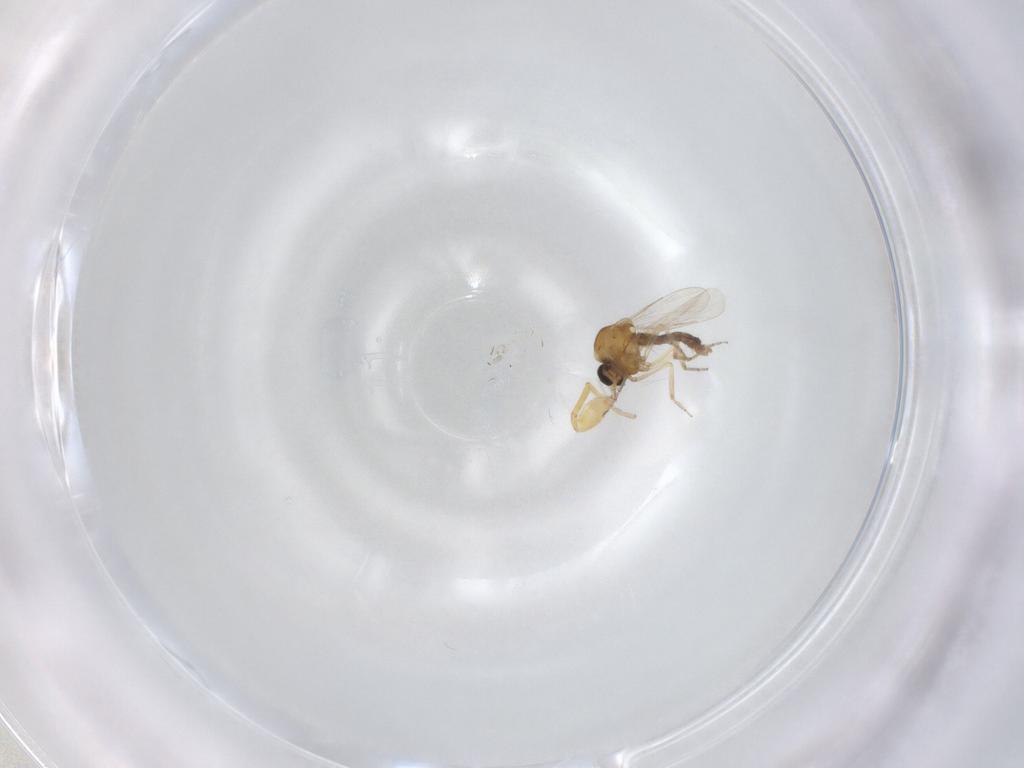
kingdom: Animalia
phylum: Arthropoda
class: Insecta
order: Diptera
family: Ceratopogonidae
